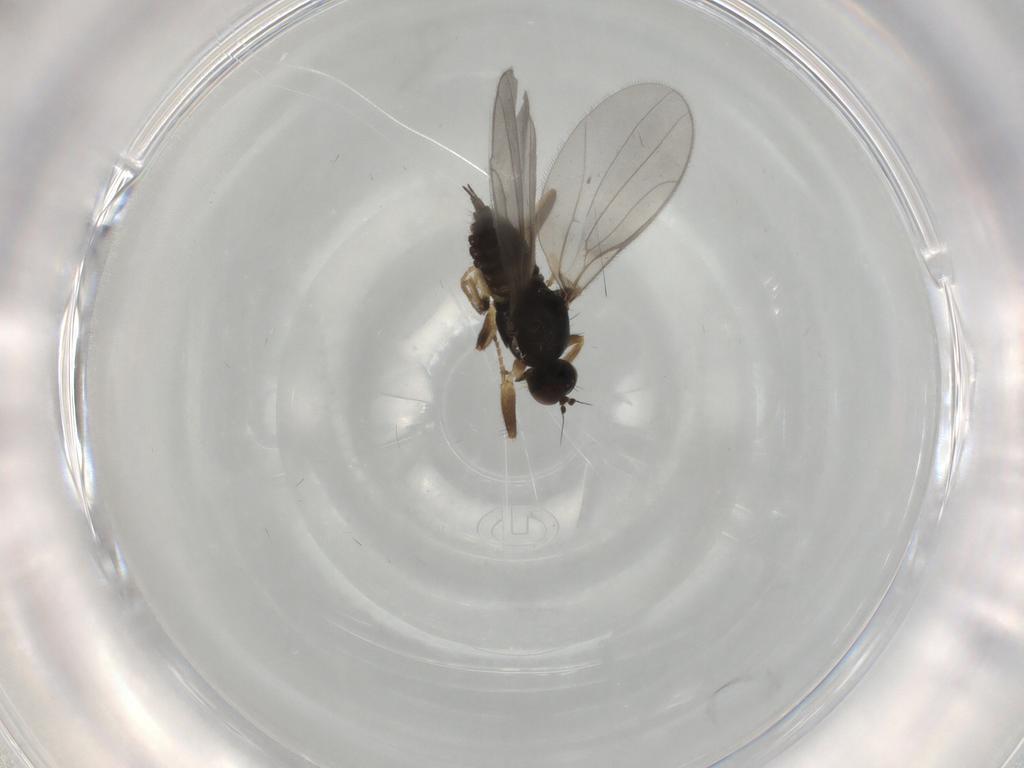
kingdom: Animalia
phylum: Arthropoda
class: Insecta
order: Diptera
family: Hybotidae
